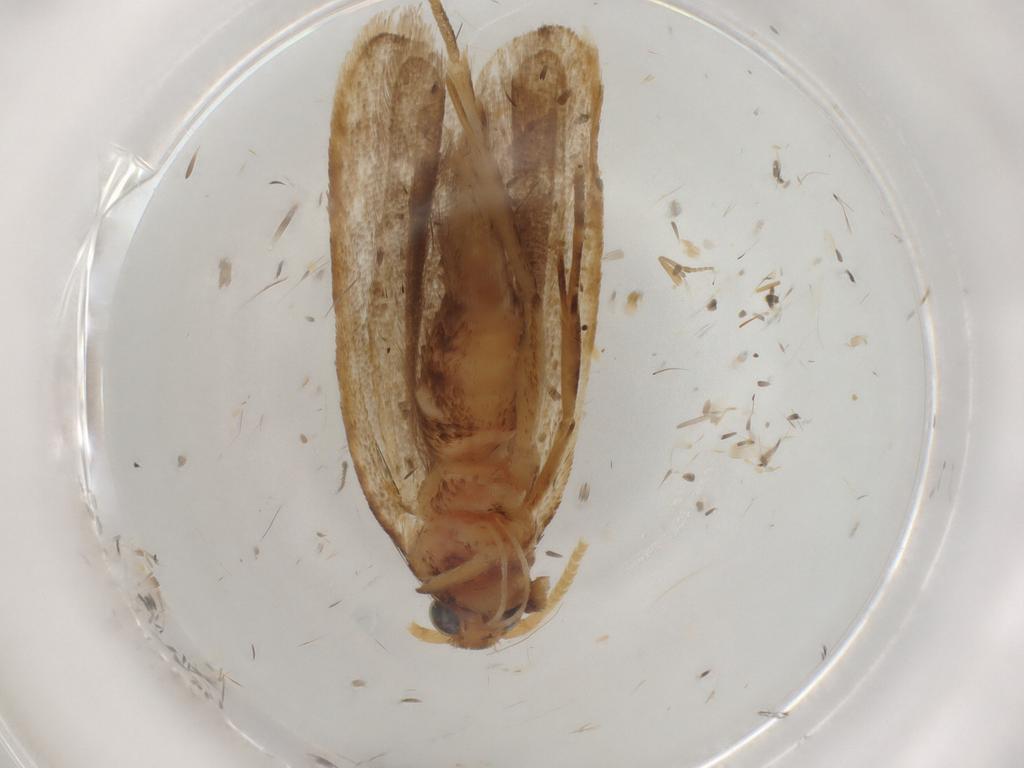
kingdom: Animalia
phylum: Arthropoda
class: Insecta
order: Lepidoptera
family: Lecithoceridae
